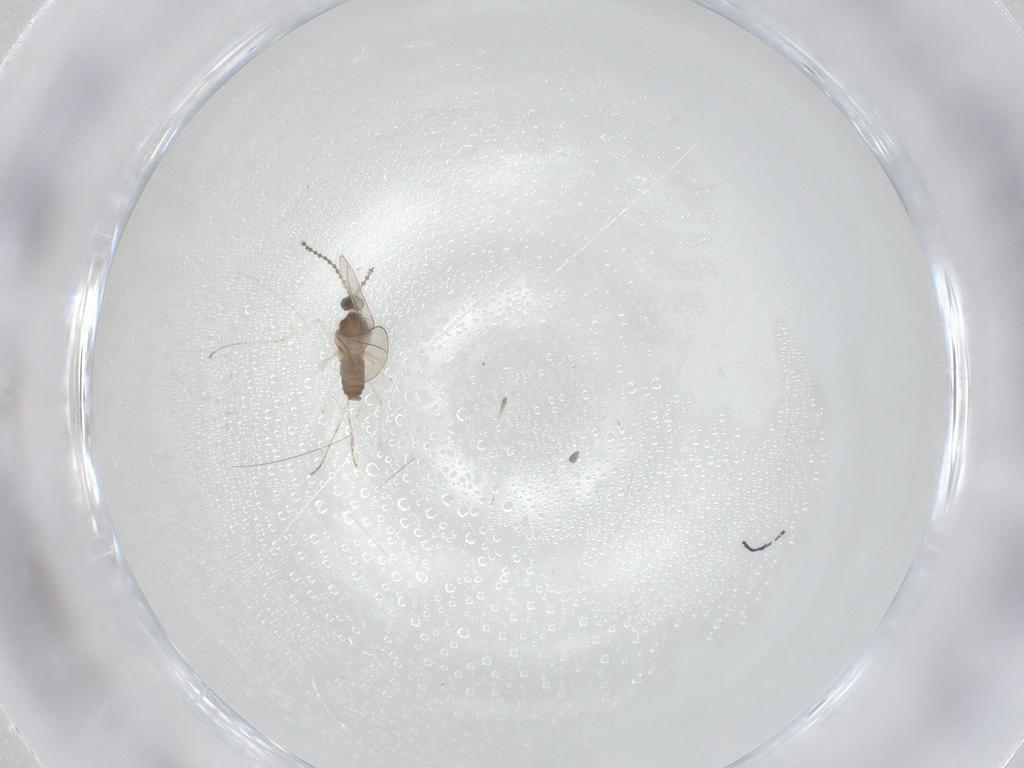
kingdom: Animalia
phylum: Arthropoda
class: Insecta
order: Diptera
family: Cecidomyiidae
